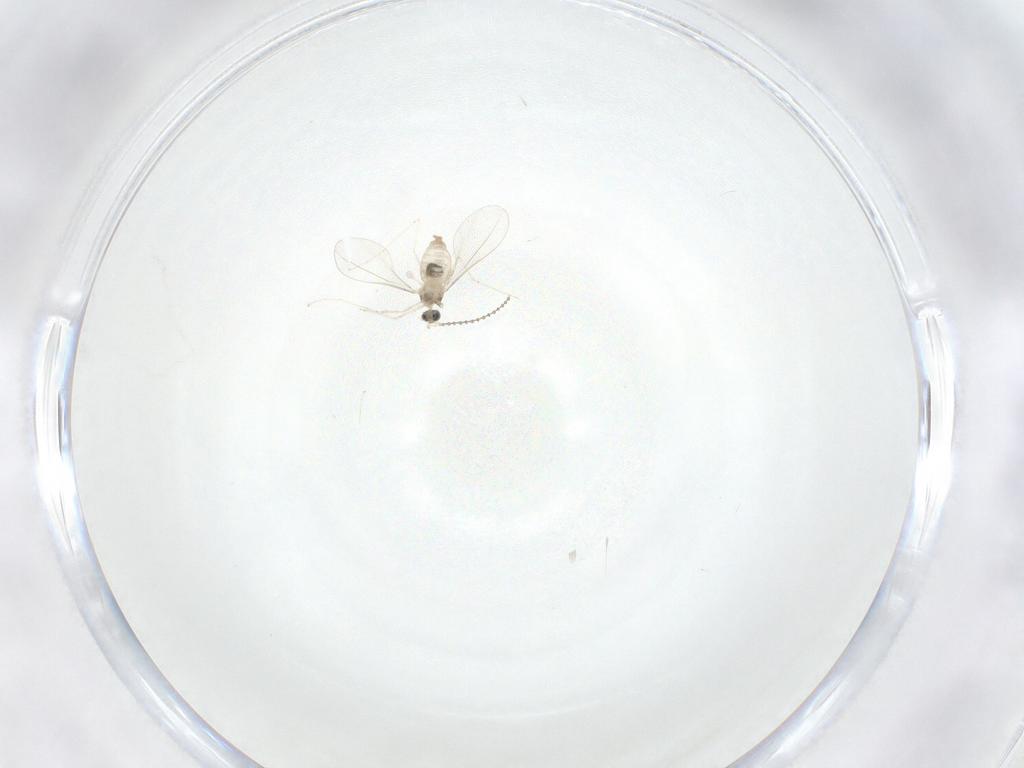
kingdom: Animalia
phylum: Arthropoda
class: Insecta
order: Diptera
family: Cecidomyiidae
